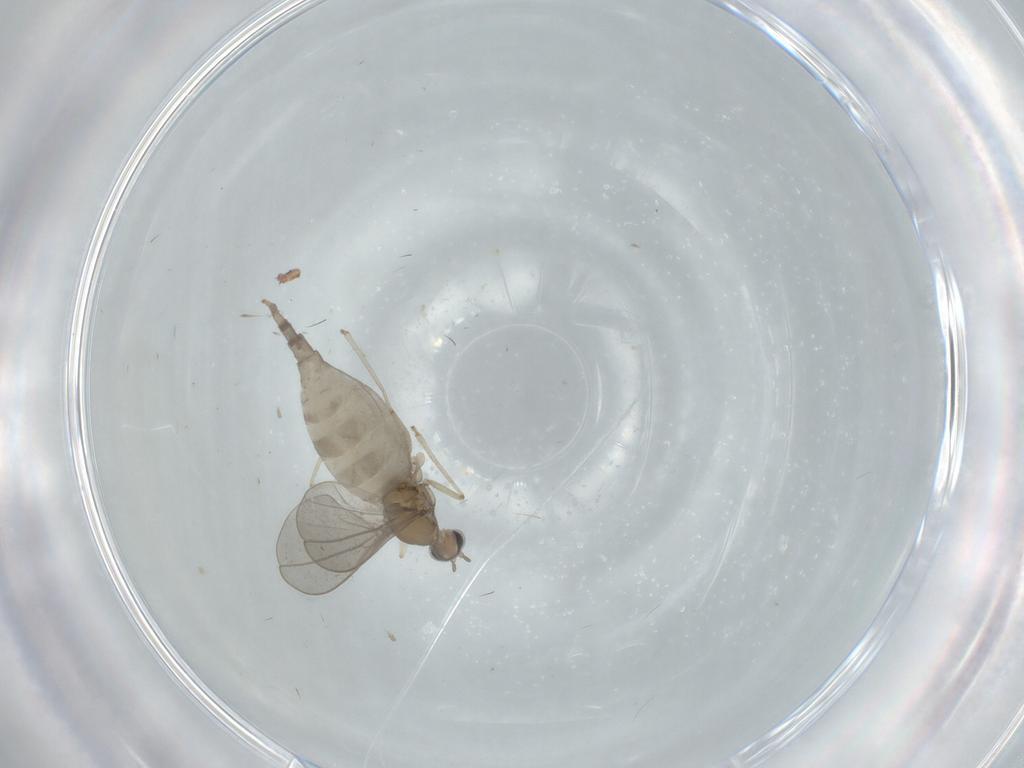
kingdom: Animalia
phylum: Arthropoda
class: Insecta
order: Diptera
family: Cecidomyiidae
